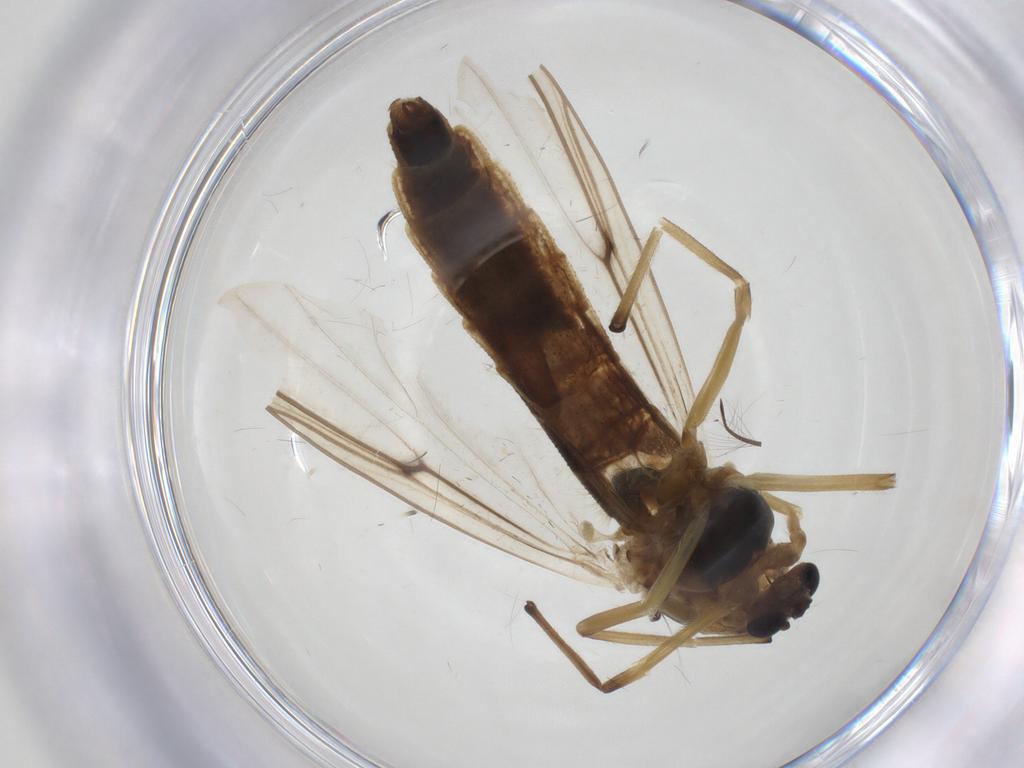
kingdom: Animalia
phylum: Arthropoda
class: Insecta
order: Diptera
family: Chironomidae
